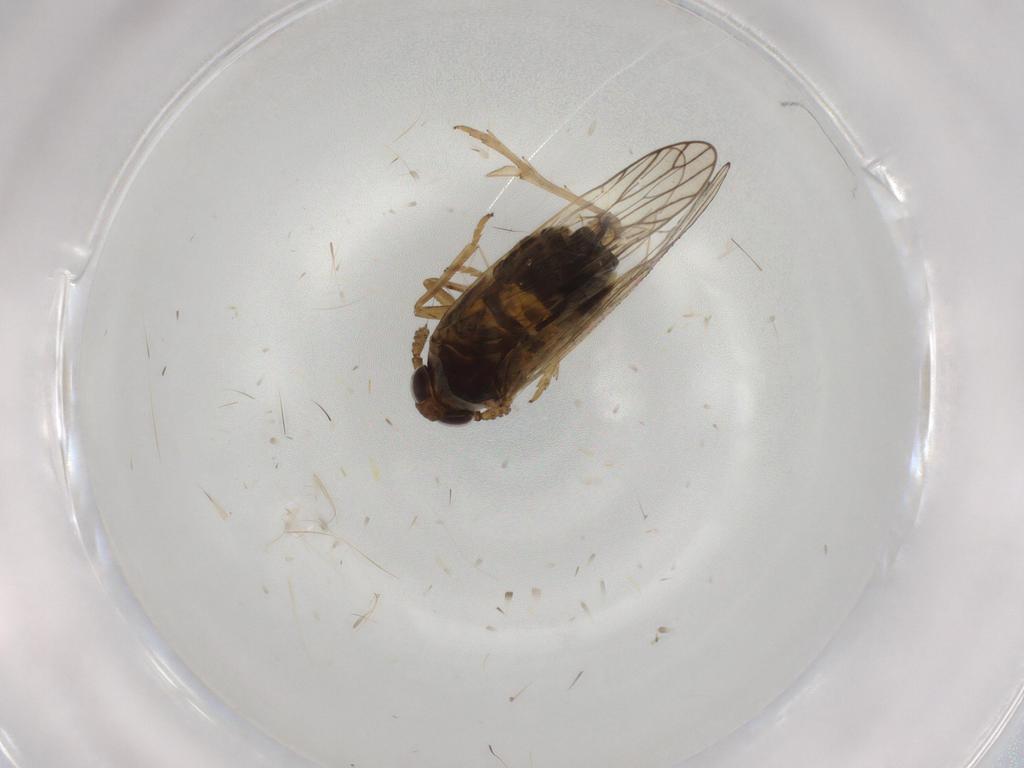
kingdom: Animalia
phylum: Arthropoda
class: Insecta
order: Hemiptera
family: Delphacidae
